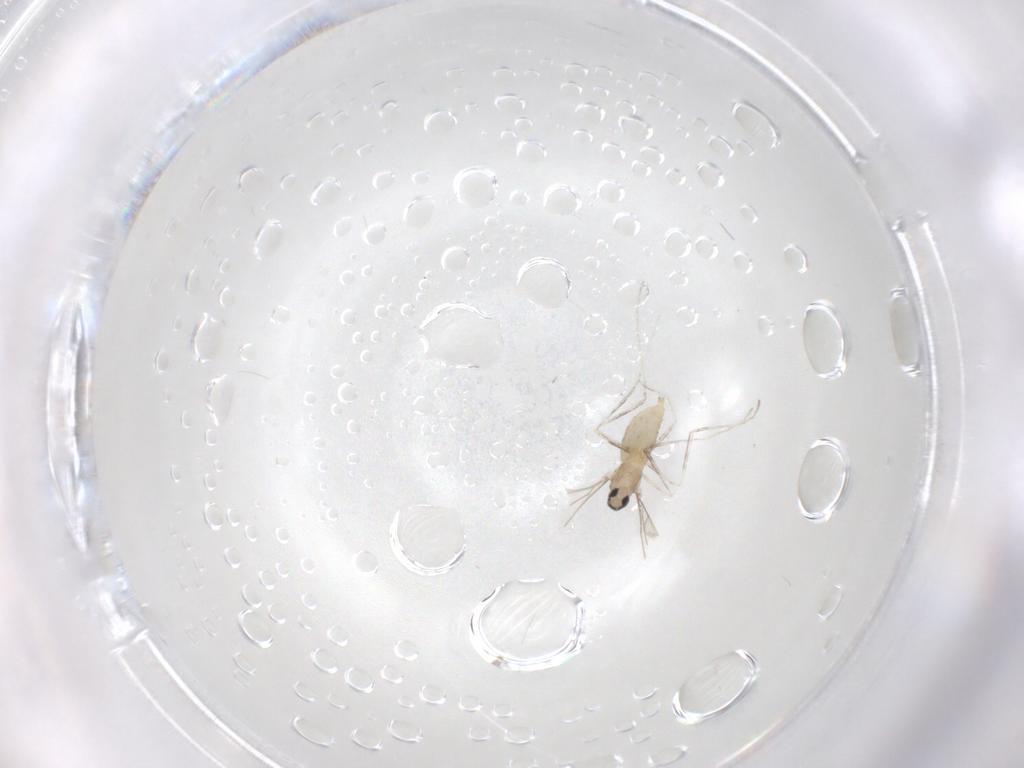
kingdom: Animalia
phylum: Arthropoda
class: Insecta
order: Diptera
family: Cecidomyiidae
